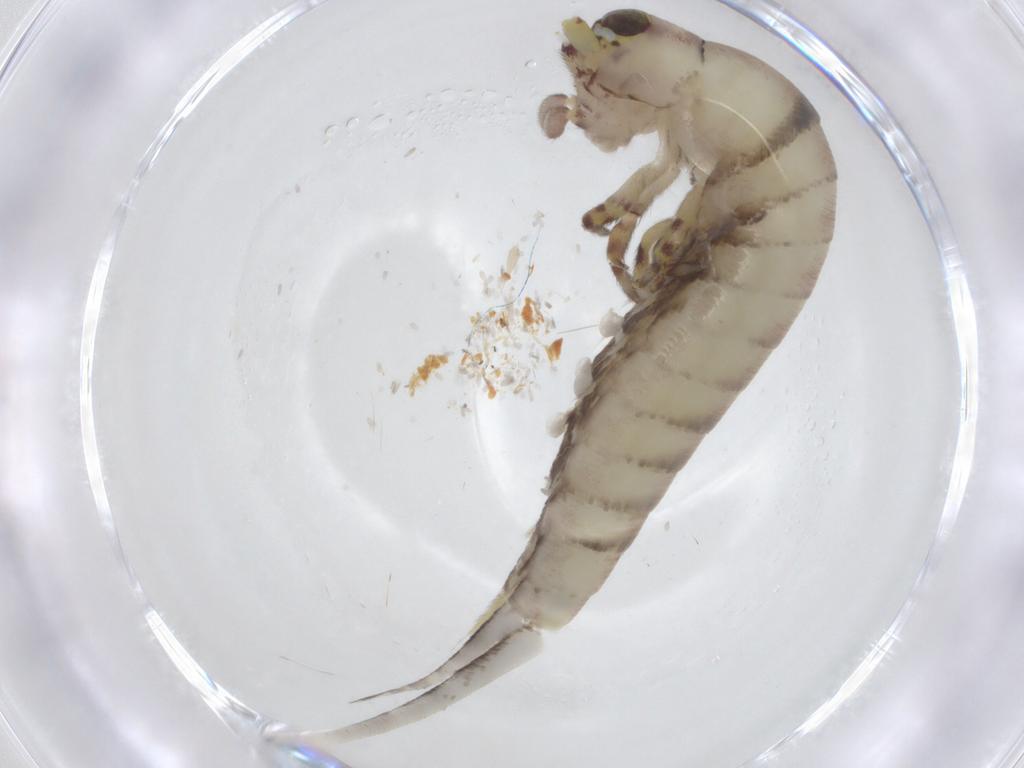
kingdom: Animalia
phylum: Arthropoda
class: Insecta
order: Archaeognatha
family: Meinertellidae
